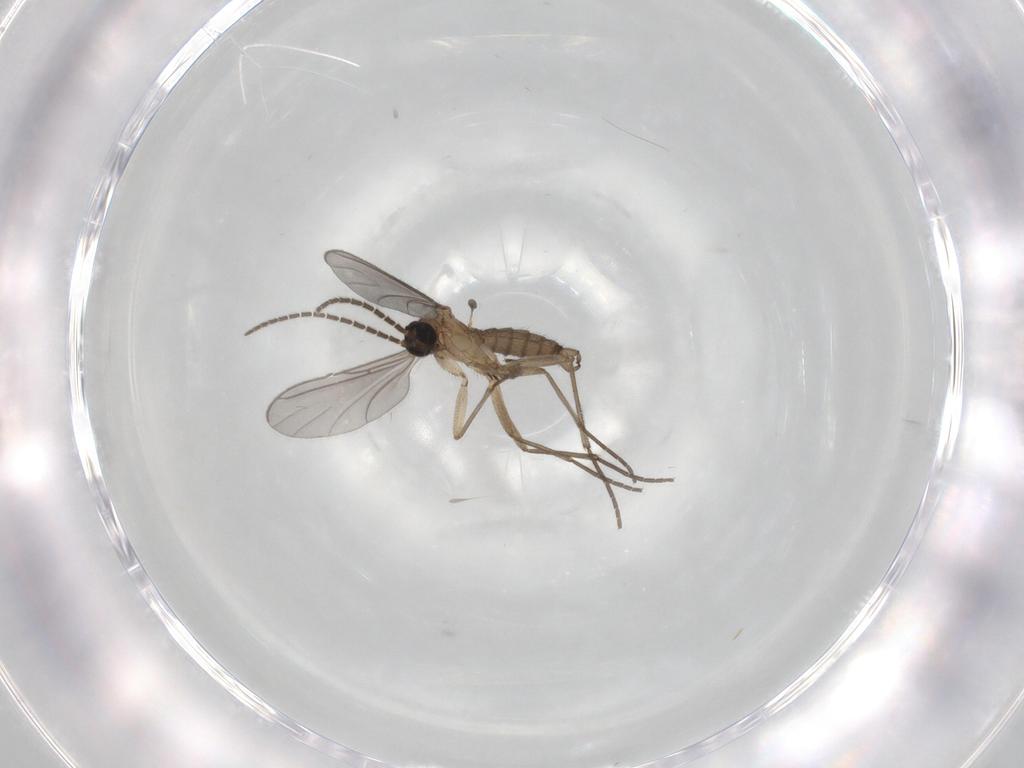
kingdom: Animalia
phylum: Arthropoda
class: Insecta
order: Diptera
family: Sciaridae
